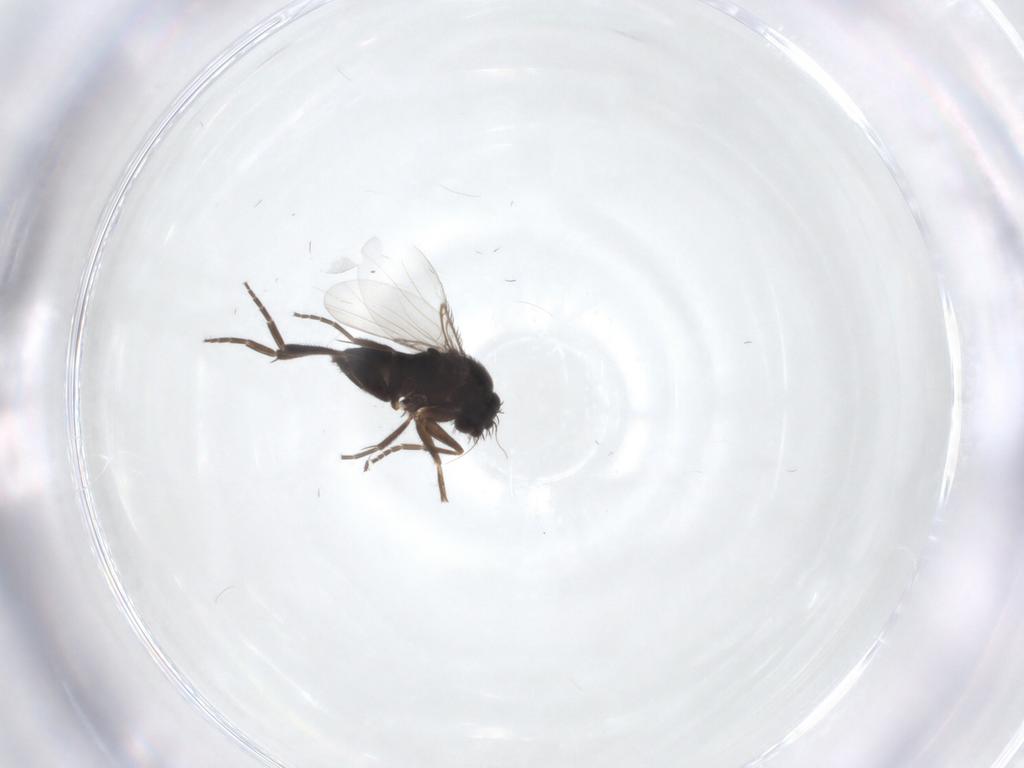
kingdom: Animalia
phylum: Arthropoda
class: Insecta
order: Diptera
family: Phoridae
